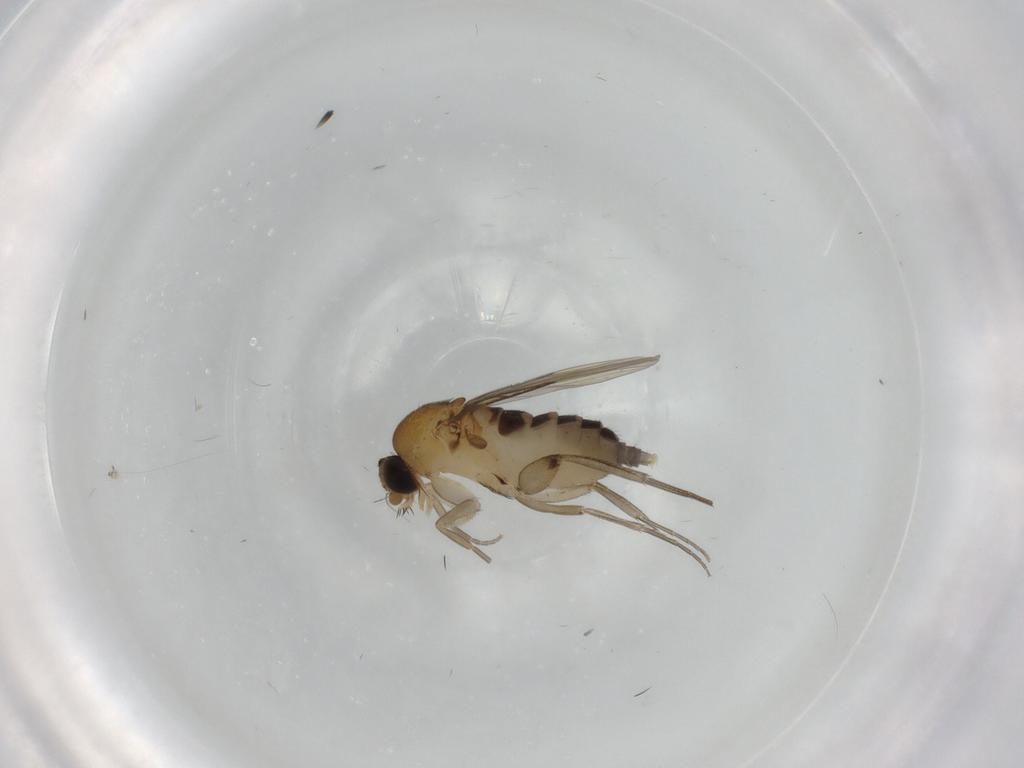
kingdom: Animalia
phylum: Arthropoda
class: Insecta
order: Diptera
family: Phoridae
